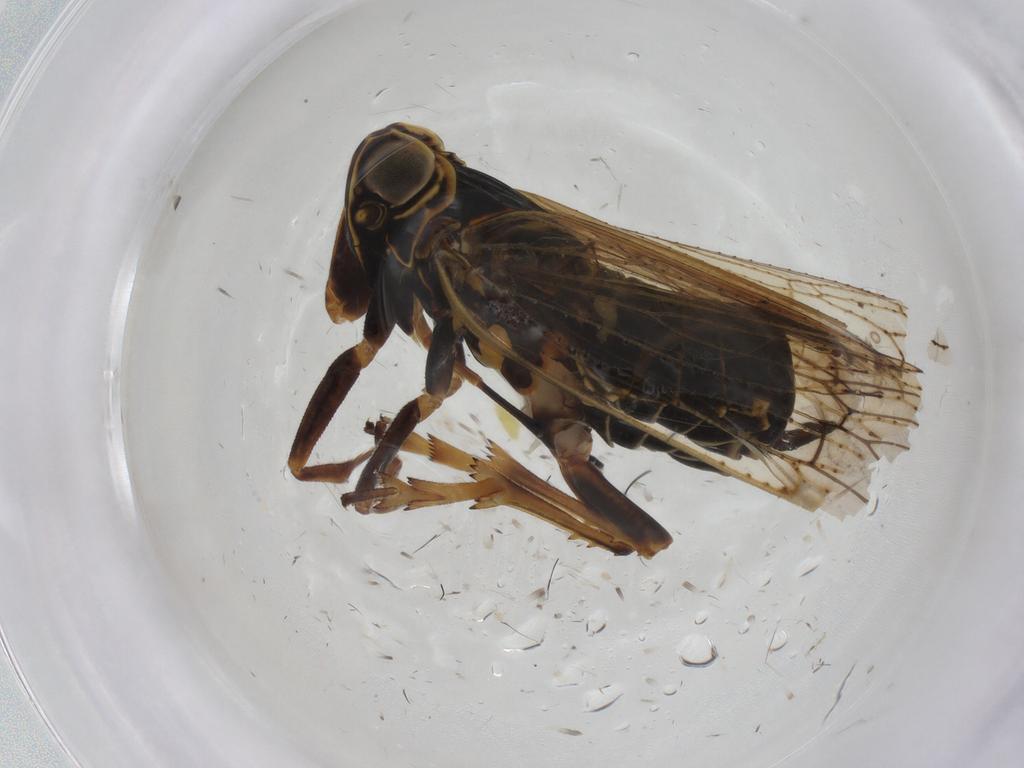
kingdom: Animalia
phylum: Arthropoda
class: Insecta
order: Hemiptera
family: Cixiidae
